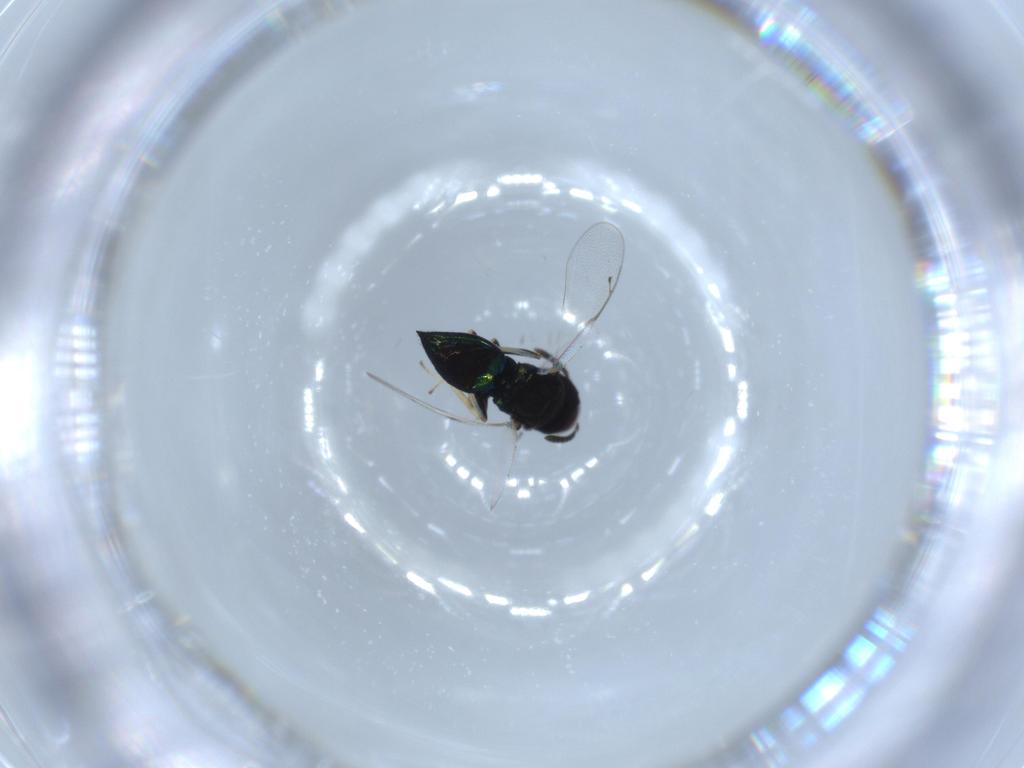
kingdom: Animalia
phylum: Arthropoda
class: Insecta
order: Hymenoptera
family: Pteromalidae
